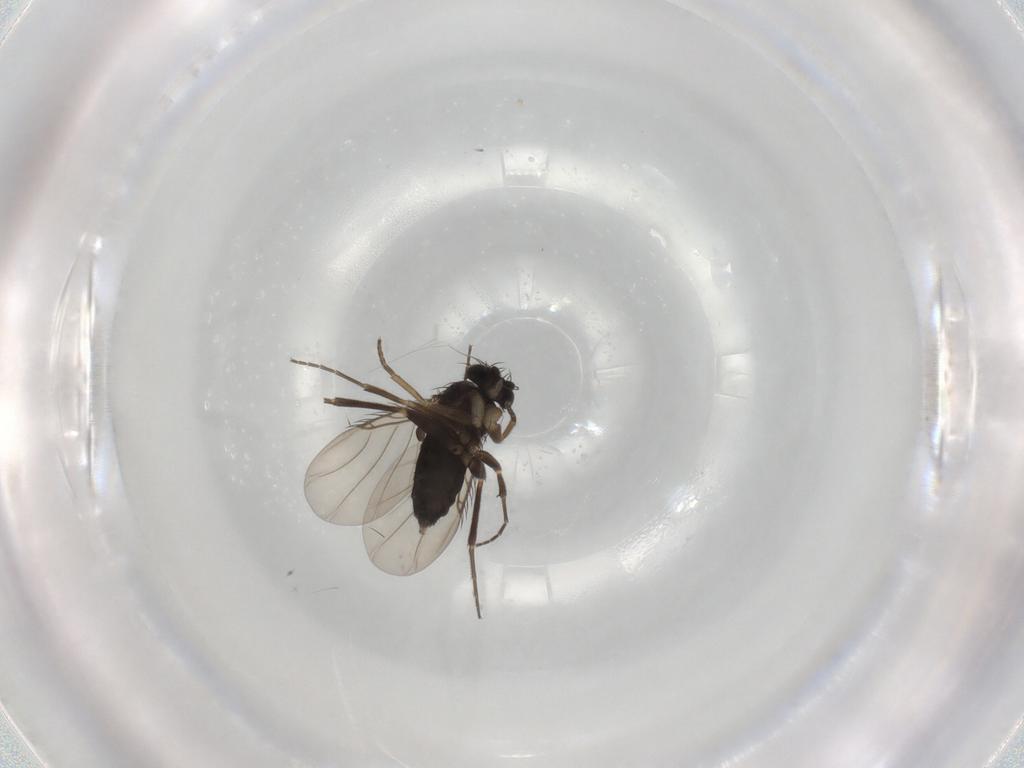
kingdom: Animalia
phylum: Arthropoda
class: Insecta
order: Diptera
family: Phoridae
